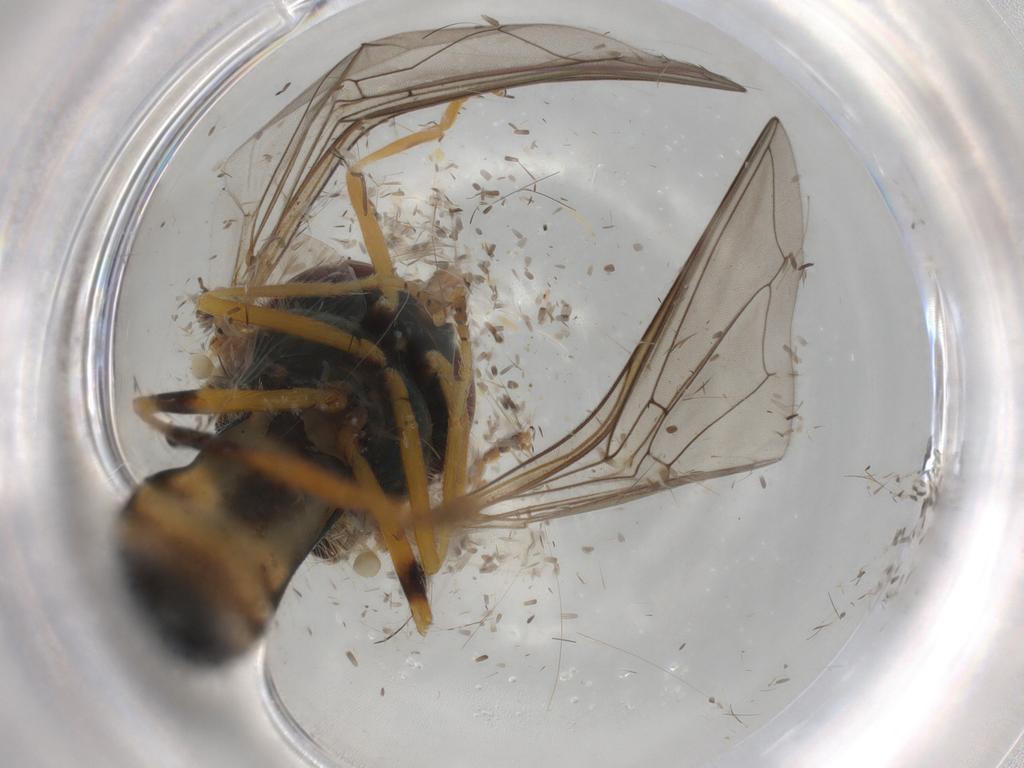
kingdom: Animalia
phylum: Arthropoda
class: Insecta
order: Diptera
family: Syrphidae
